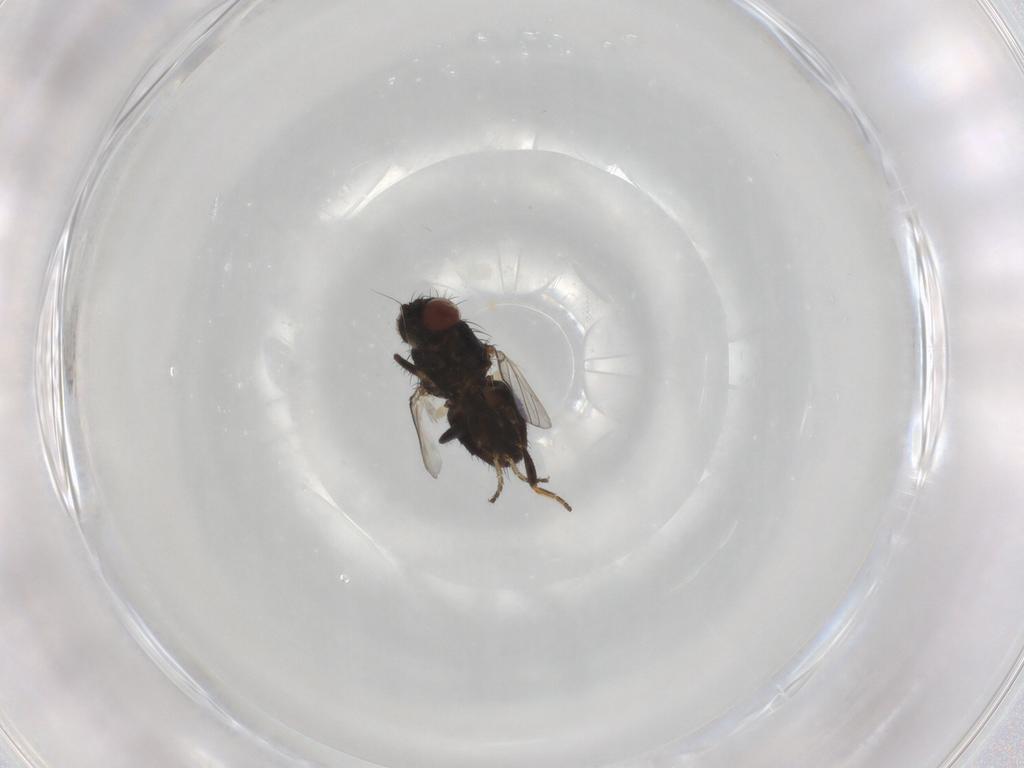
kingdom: Animalia
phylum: Arthropoda
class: Insecta
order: Diptera
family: Milichiidae
